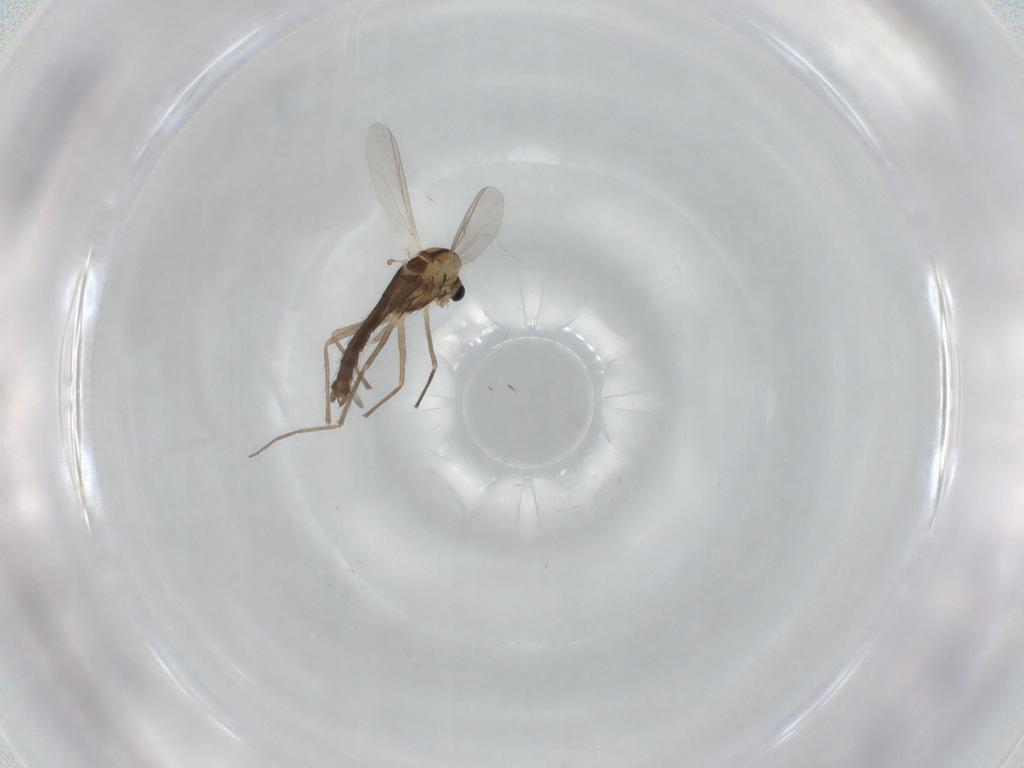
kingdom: Animalia
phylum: Arthropoda
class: Insecta
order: Diptera
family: Chironomidae
